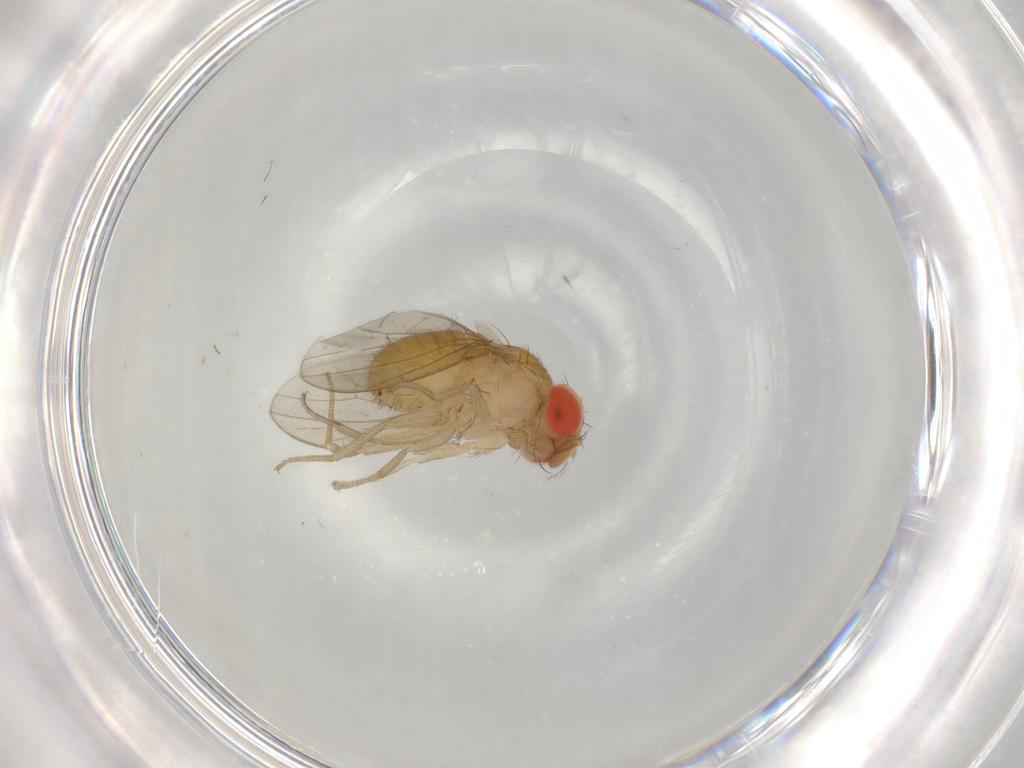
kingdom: Animalia
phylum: Arthropoda
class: Insecta
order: Diptera
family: Drosophilidae
